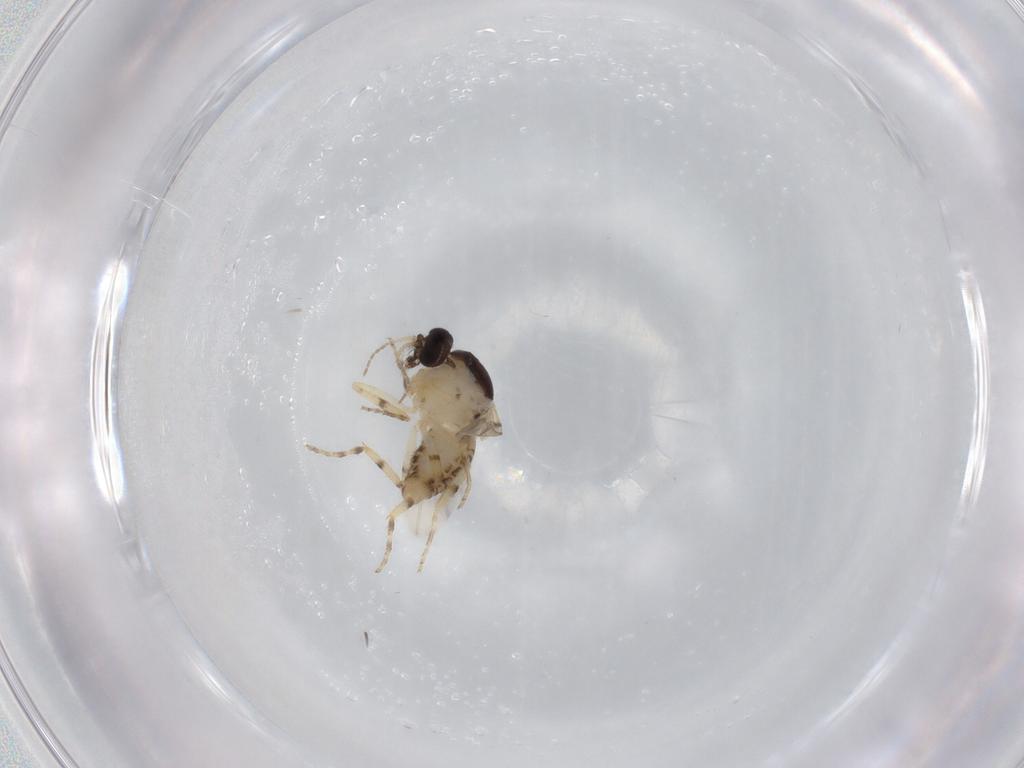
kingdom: Animalia
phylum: Arthropoda
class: Insecta
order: Diptera
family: Ceratopogonidae
